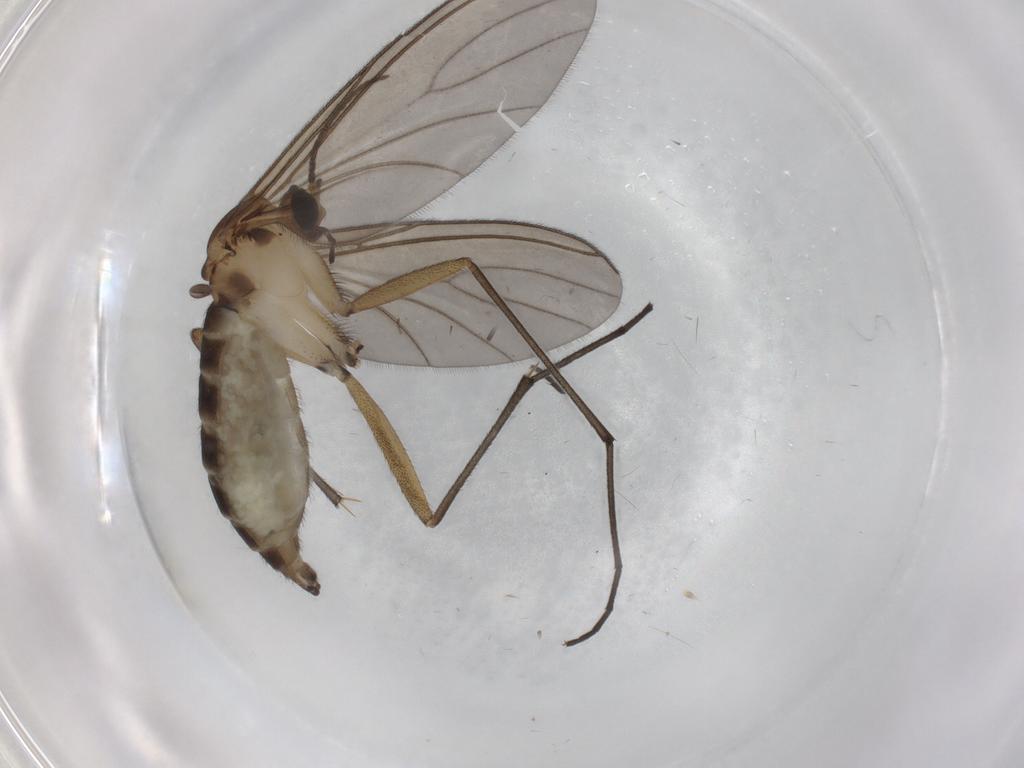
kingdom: Animalia
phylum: Arthropoda
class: Insecta
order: Diptera
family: Sciaridae
